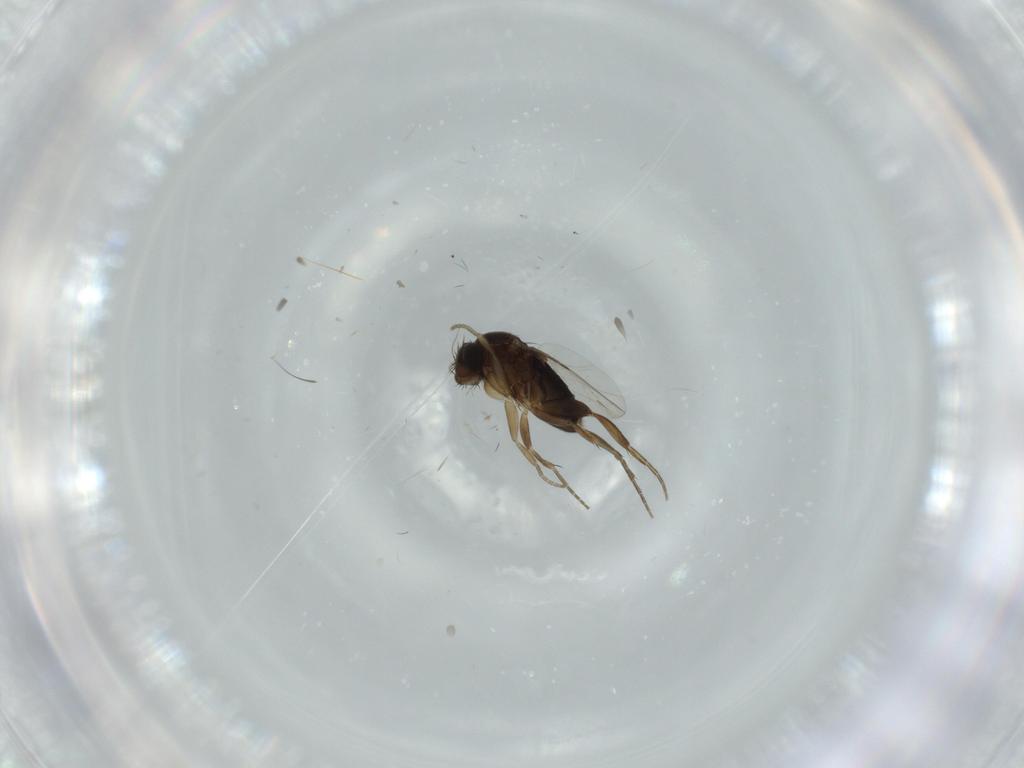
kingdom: Animalia
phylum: Arthropoda
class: Insecta
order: Diptera
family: Phoridae
